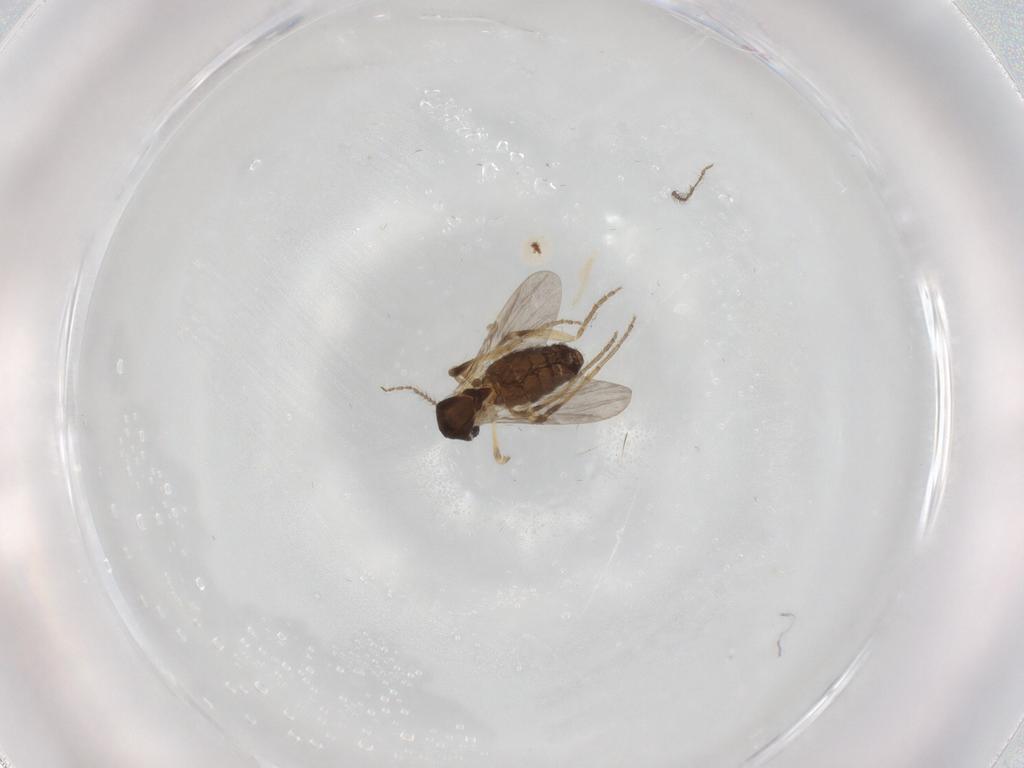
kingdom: Animalia
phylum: Arthropoda
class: Insecta
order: Diptera
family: Ceratopogonidae
